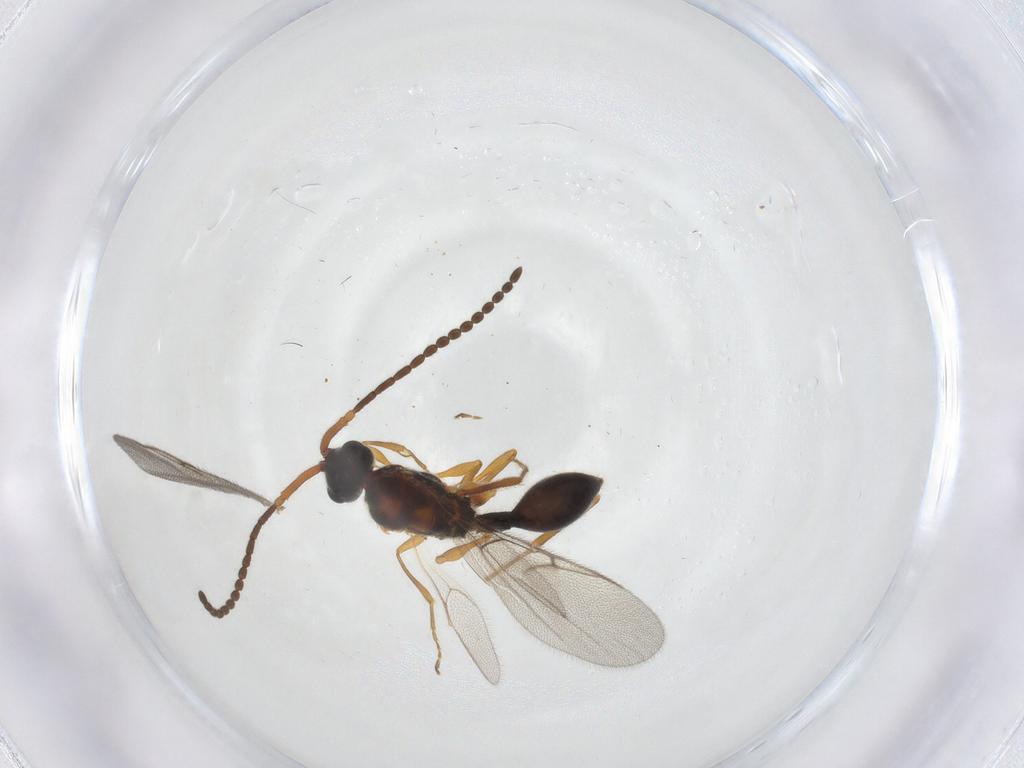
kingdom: Animalia
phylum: Arthropoda
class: Insecta
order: Hymenoptera
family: Diapriidae
